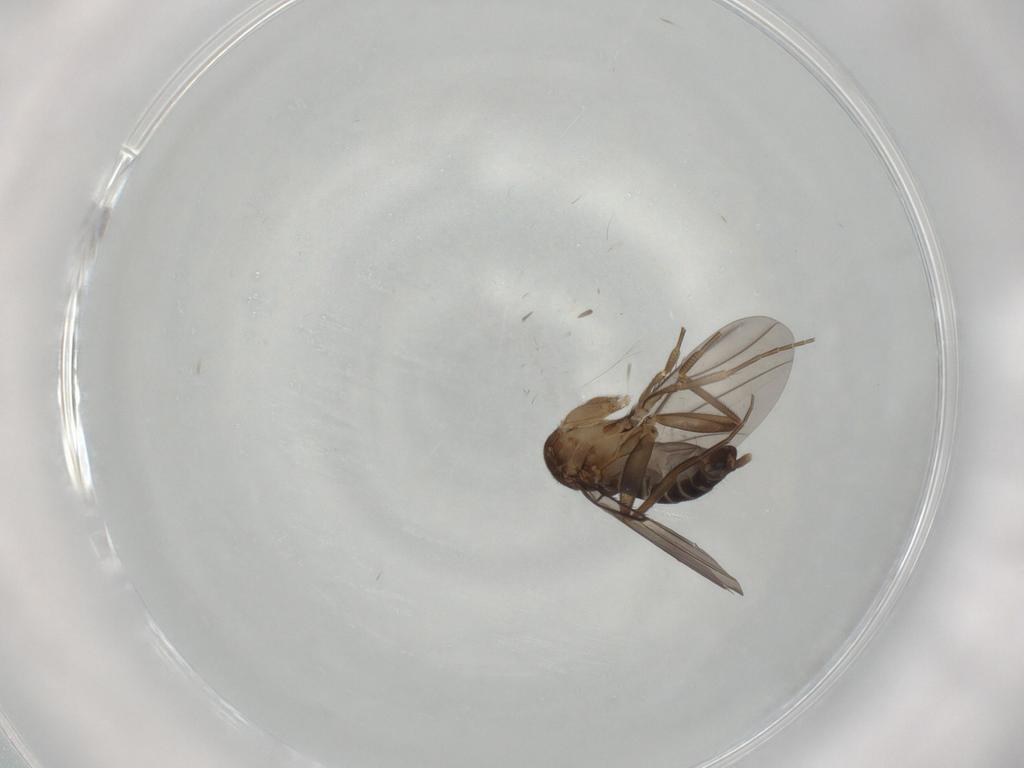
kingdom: Animalia
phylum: Arthropoda
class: Insecta
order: Diptera
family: Phoridae
